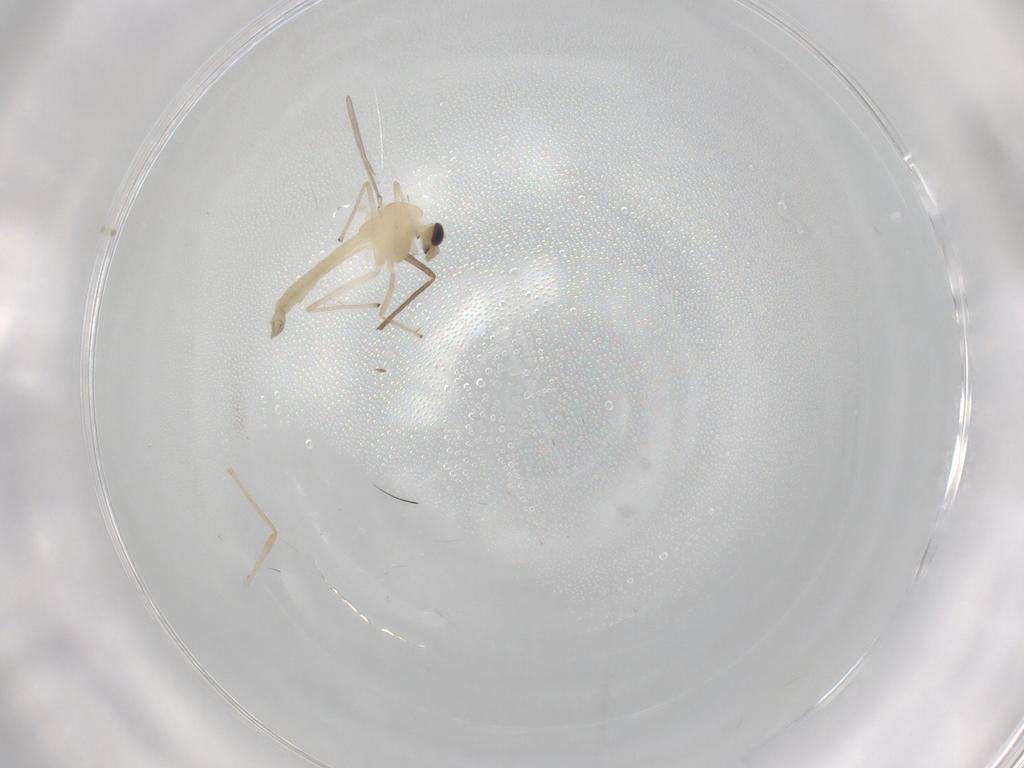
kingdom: Animalia
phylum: Arthropoda
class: Insecta
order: Diptera
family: Chironomidae
